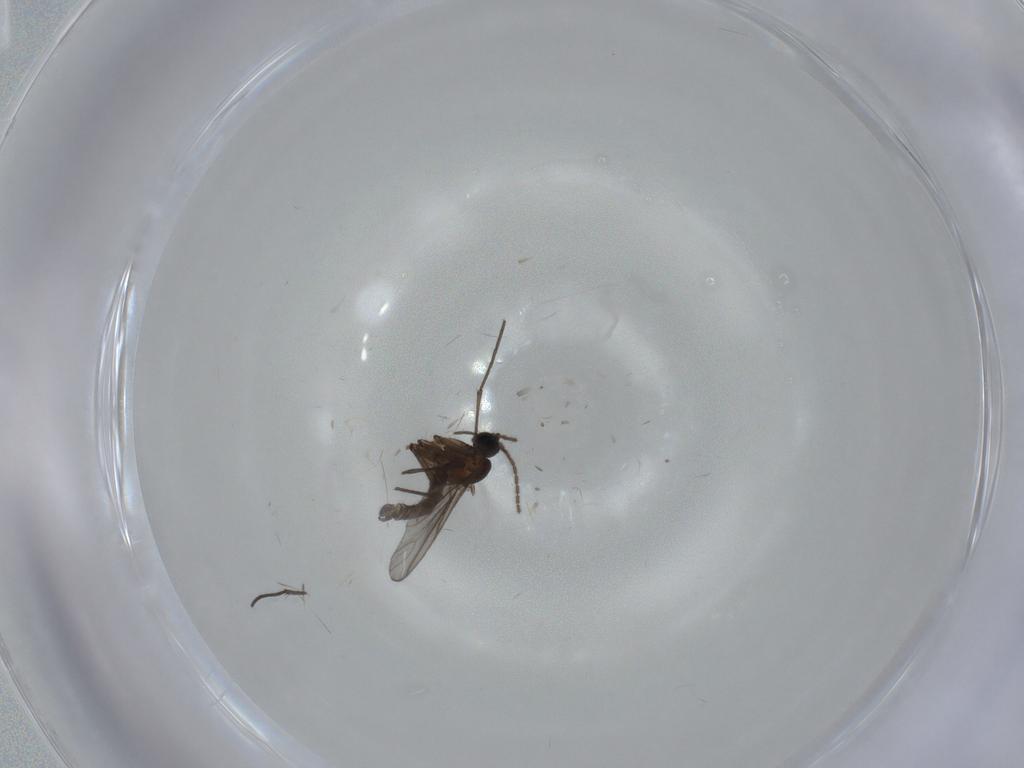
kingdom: Animalia
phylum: Arthropoda
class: Insecta
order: Diptera
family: Sciaridae
